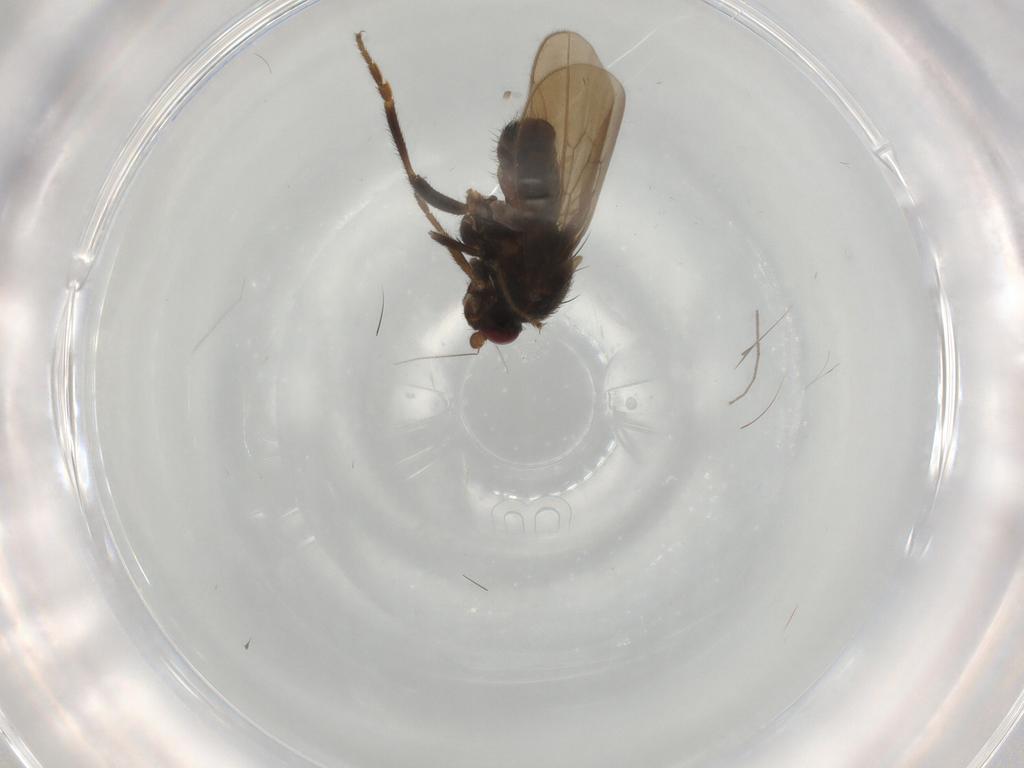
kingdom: Animalia
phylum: Arthropoda
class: Insecta
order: Diptera
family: Sphaeroceridae
